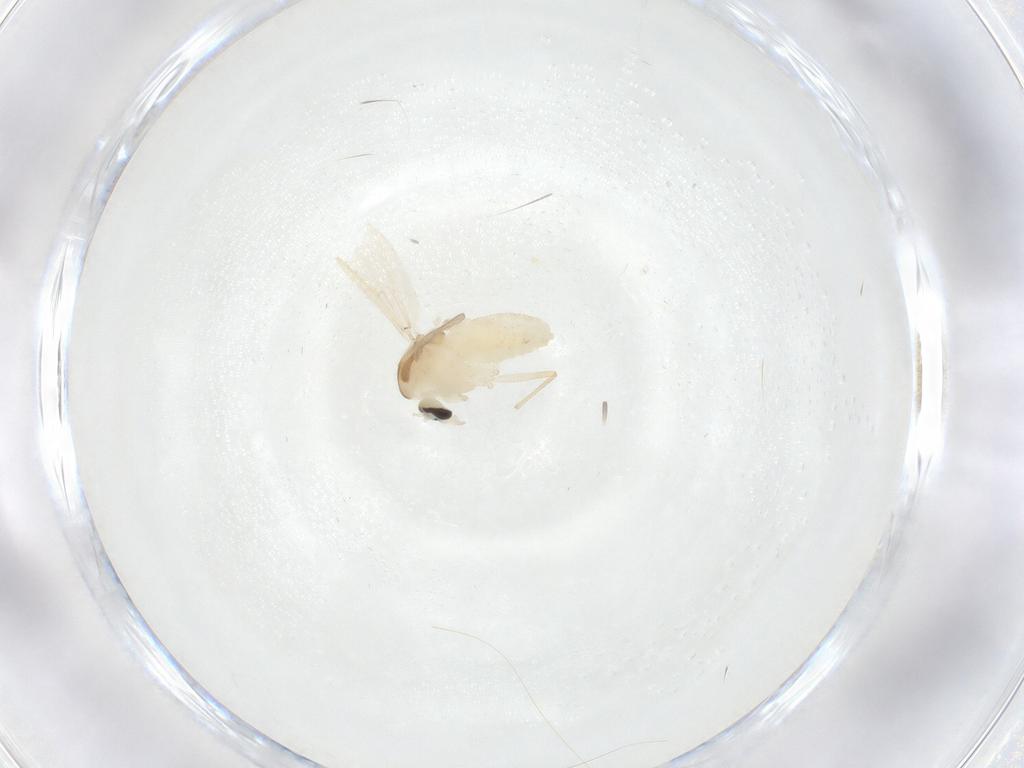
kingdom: Animalia
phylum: Arthropoda
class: Insecta
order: Diptera
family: Chironomidae
